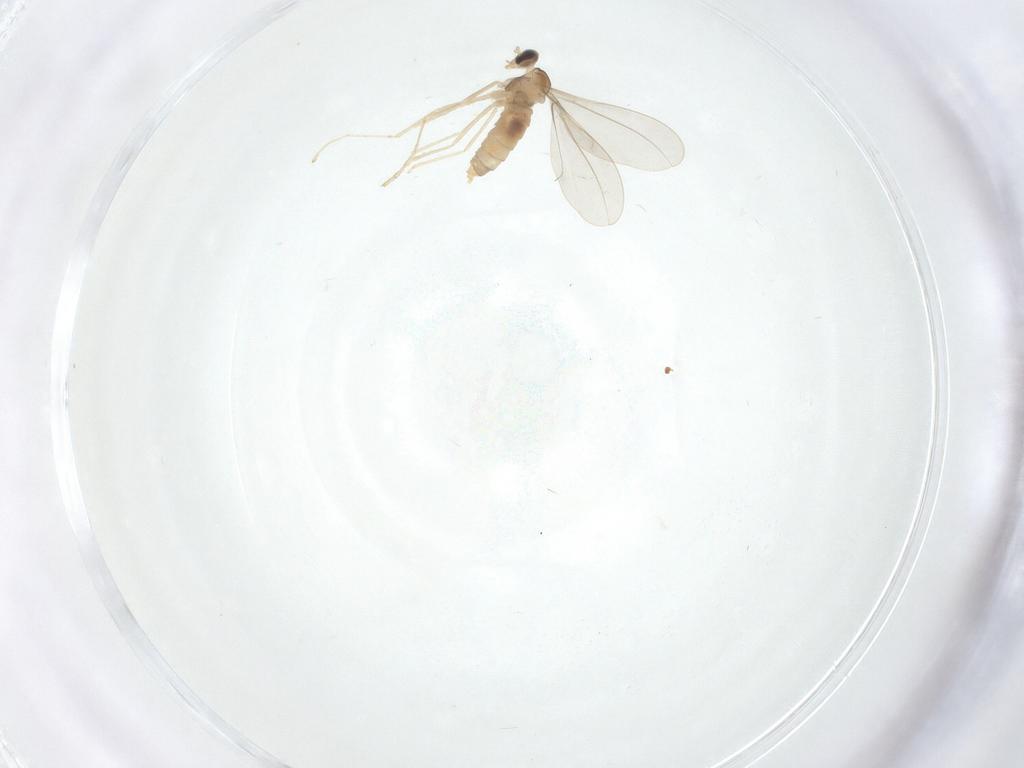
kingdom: Animalia
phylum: Arthropoda
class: Insecta
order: Diptera
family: Cecidomyiidae
